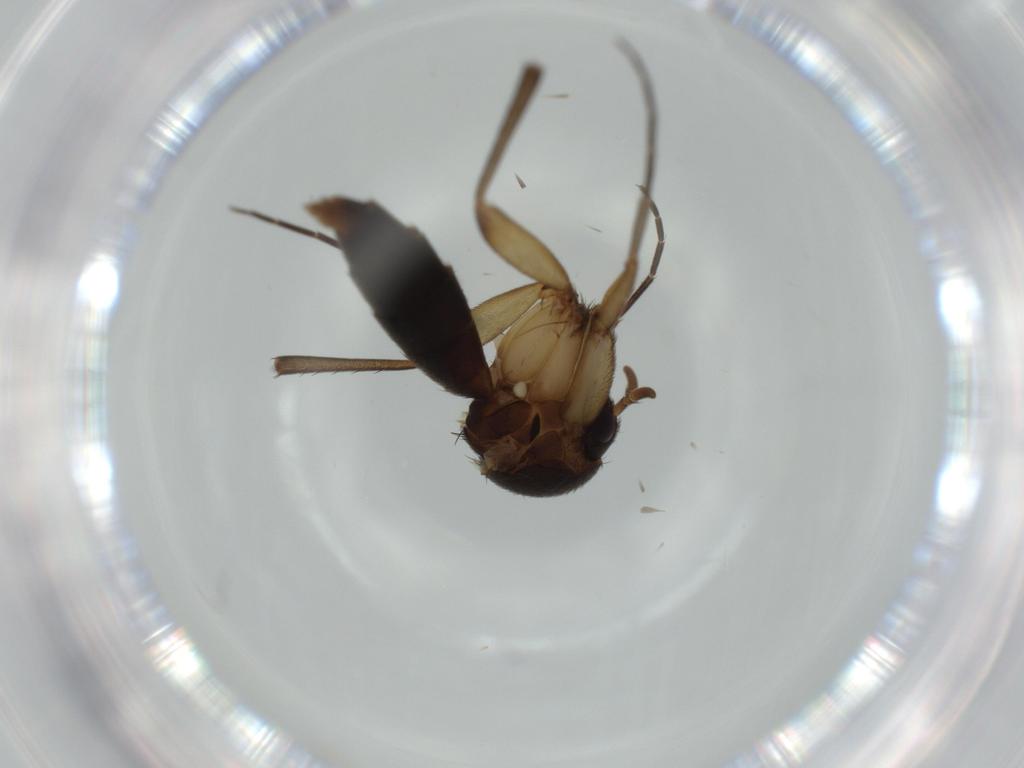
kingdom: Animalia
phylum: Arthropoda
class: Insecta
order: Diptera
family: Mycetophilidae
